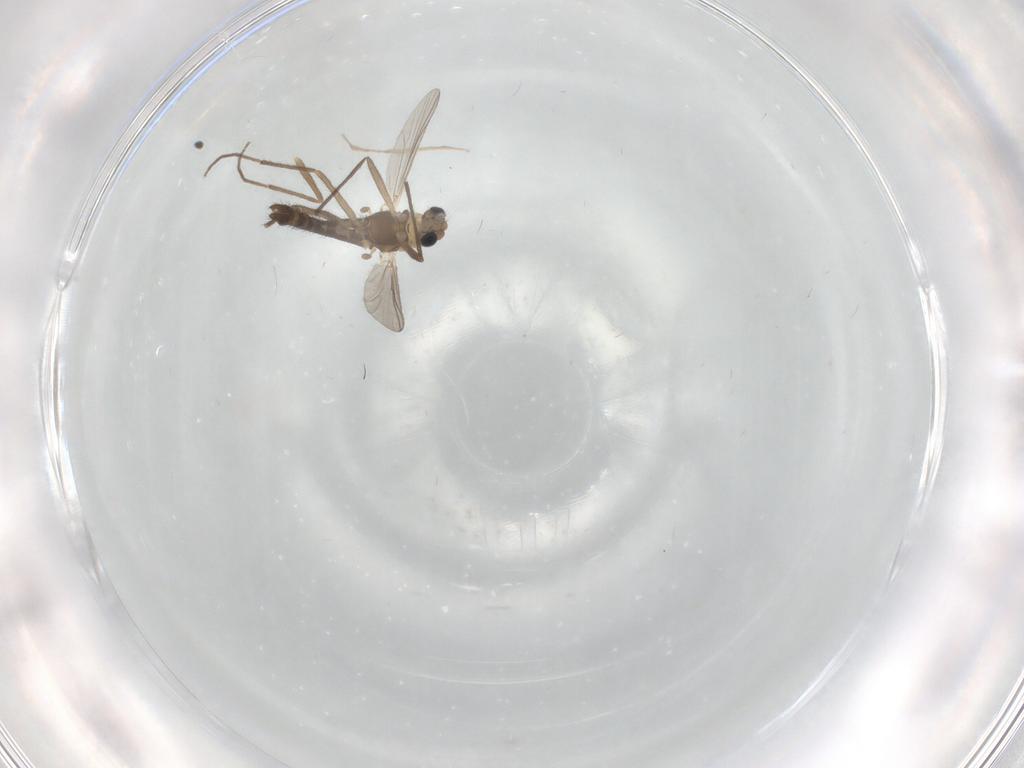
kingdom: Animalia
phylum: Arthropoda
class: Insecta
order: Diptera
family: Chironomidae
